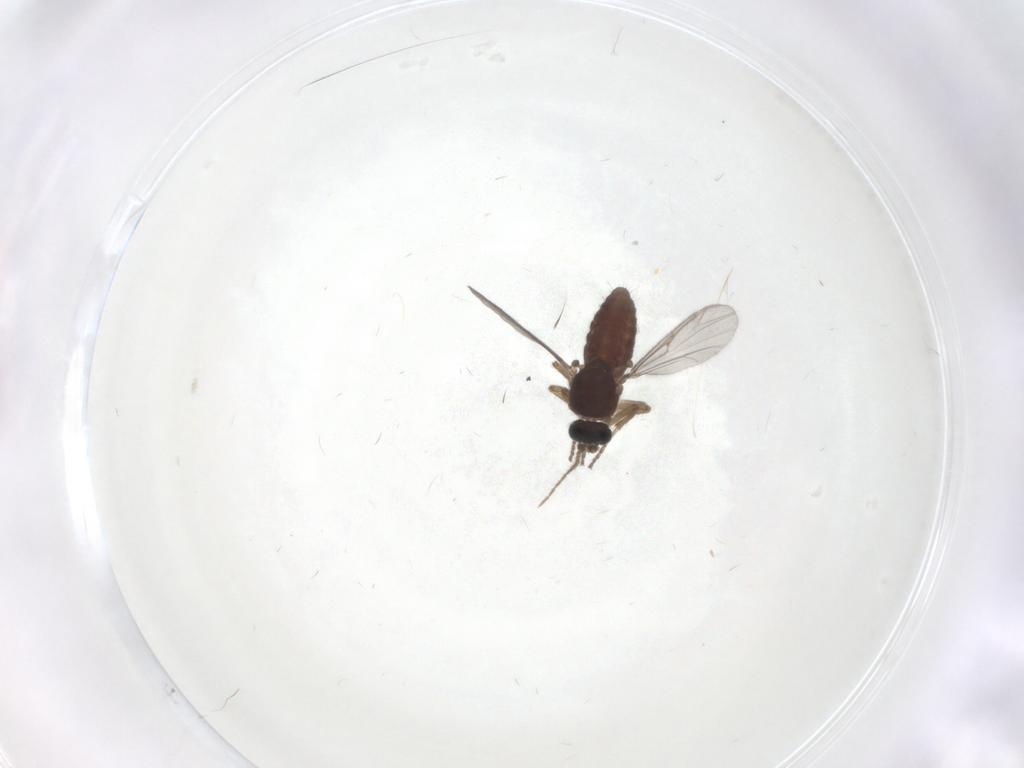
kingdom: Animalia
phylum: Arthropoda
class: Insecta
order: Diptera
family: Ceratopogonidae
